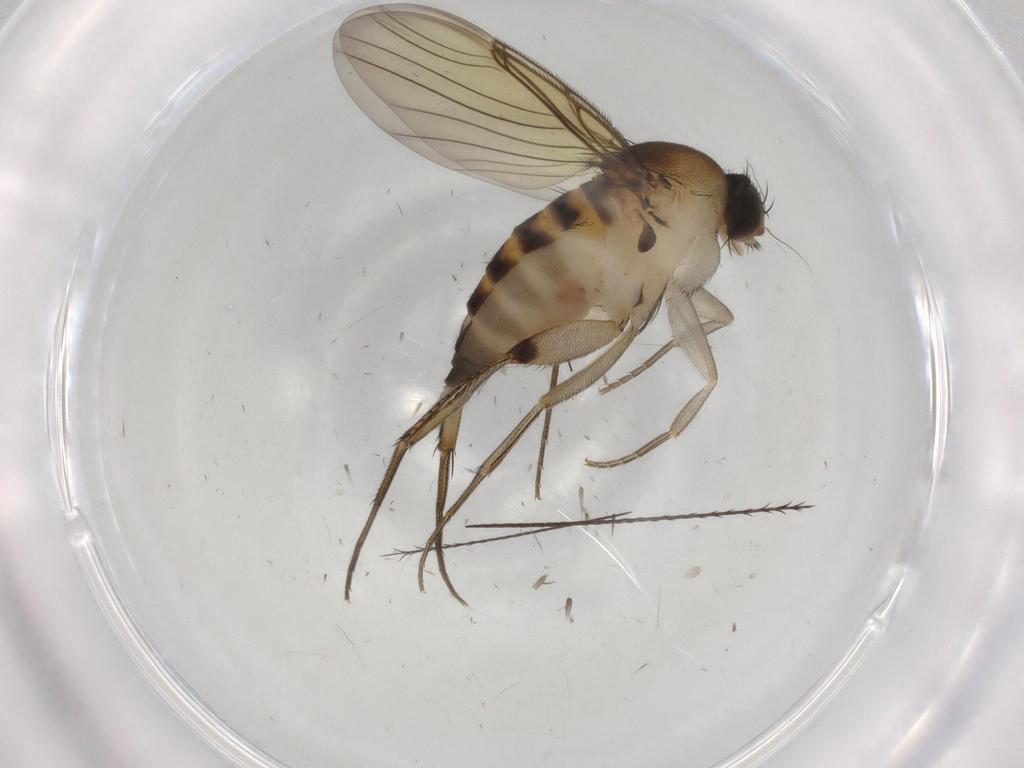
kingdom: Animalia
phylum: Arthropoda
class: Insecta
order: Diptera
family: Phoridae
